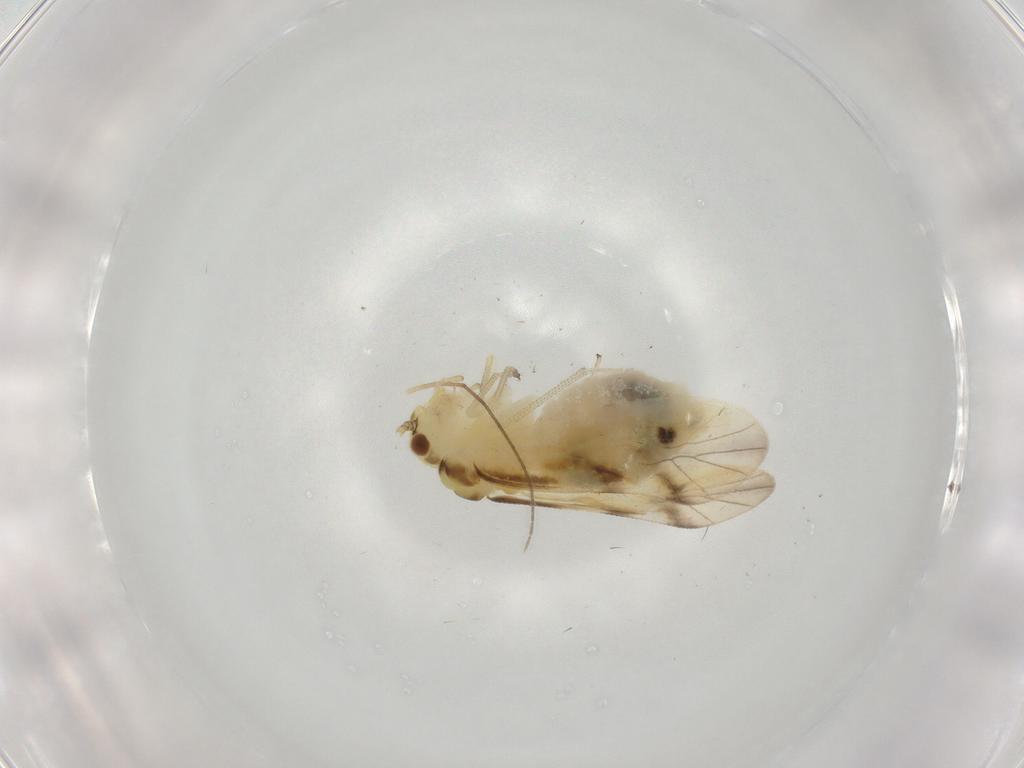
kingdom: Animalia
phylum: Arthropoda
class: Insecta
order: Psocodea
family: Caeciliusidae
